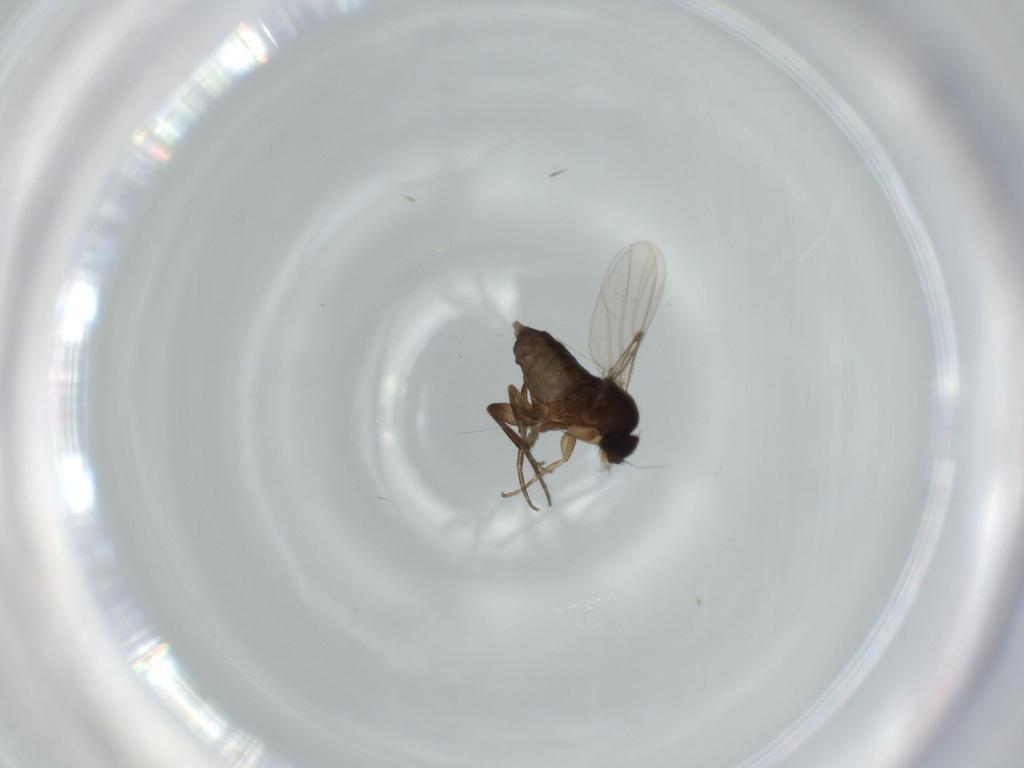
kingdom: Animalia
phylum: Arthropoda
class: Insecta
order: Diptera
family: Phoridae
